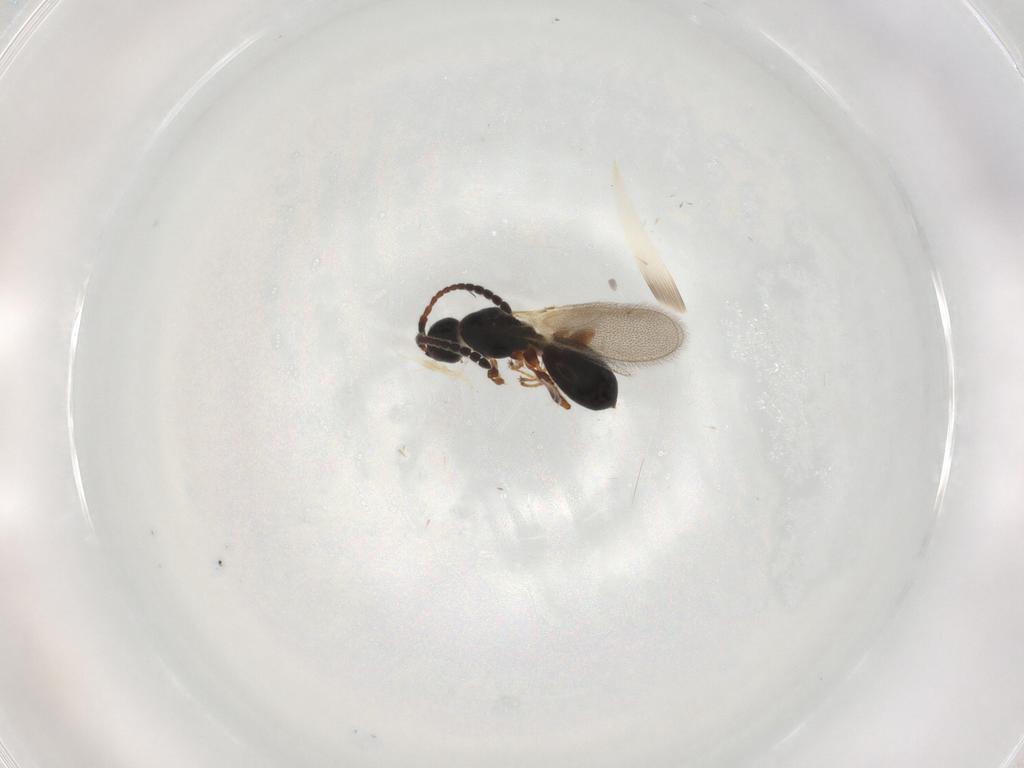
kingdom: Animalia
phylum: Arthropoda
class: Insecta
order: Hymenoptera
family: Diapriidae
